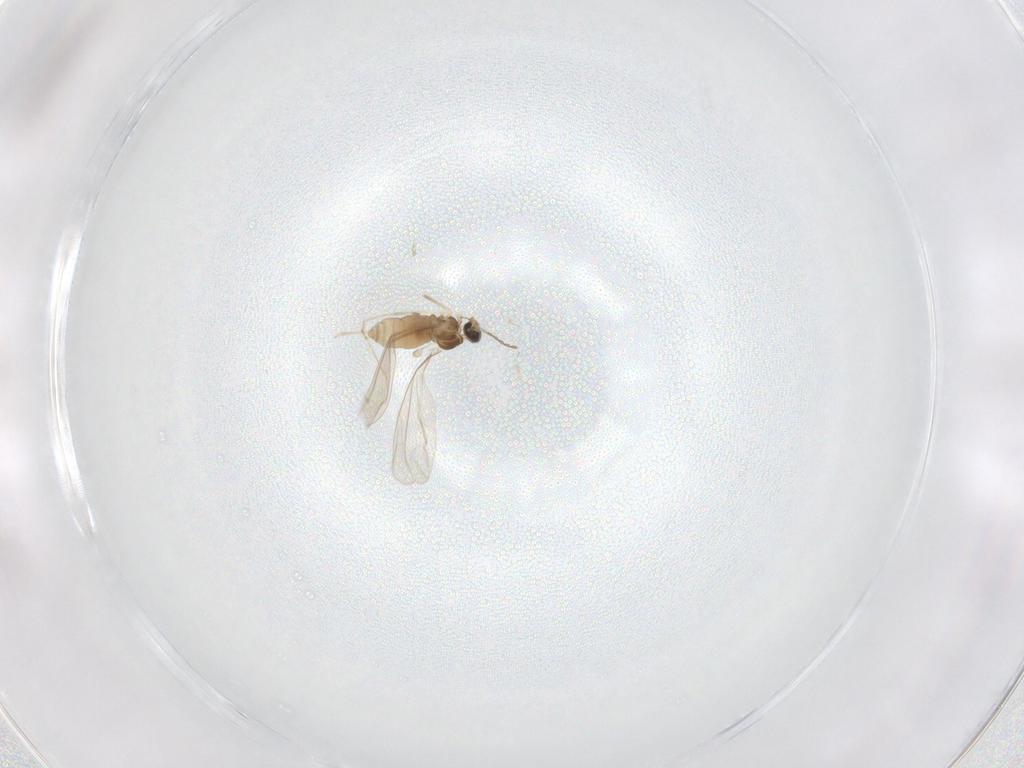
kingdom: Animalia
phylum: Arthropoda
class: Insecta
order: Diptera
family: Cecidomyiidae
